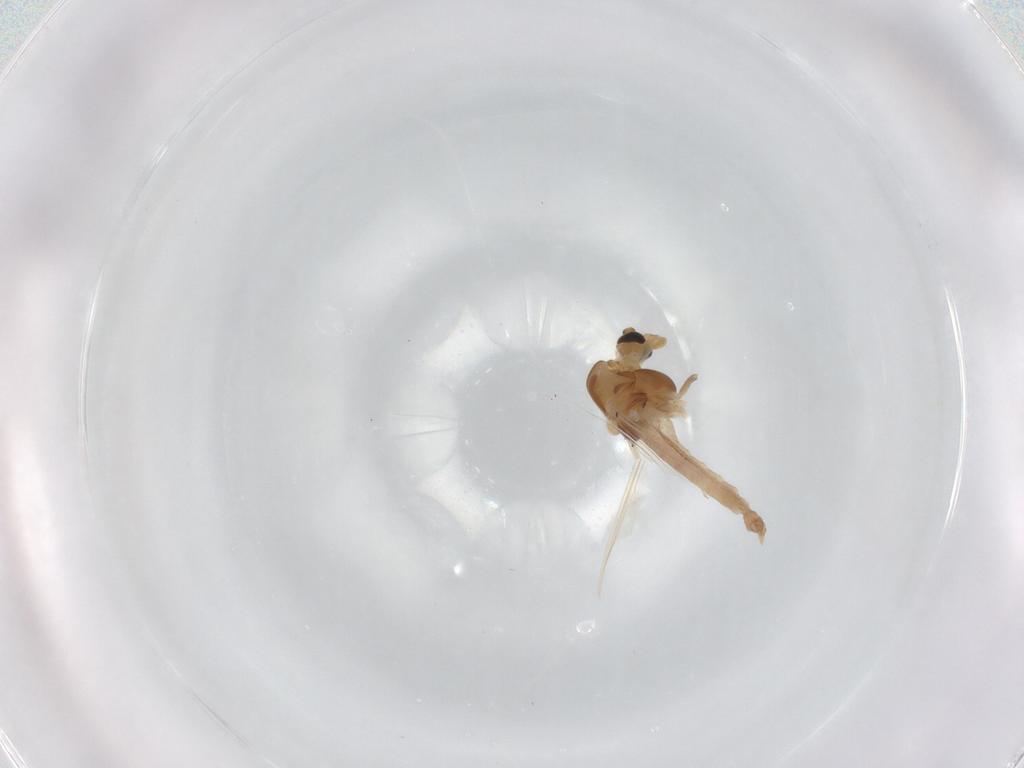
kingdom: Animalia
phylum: Arthropoda
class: Insecta
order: Diptera
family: Chironomidae
